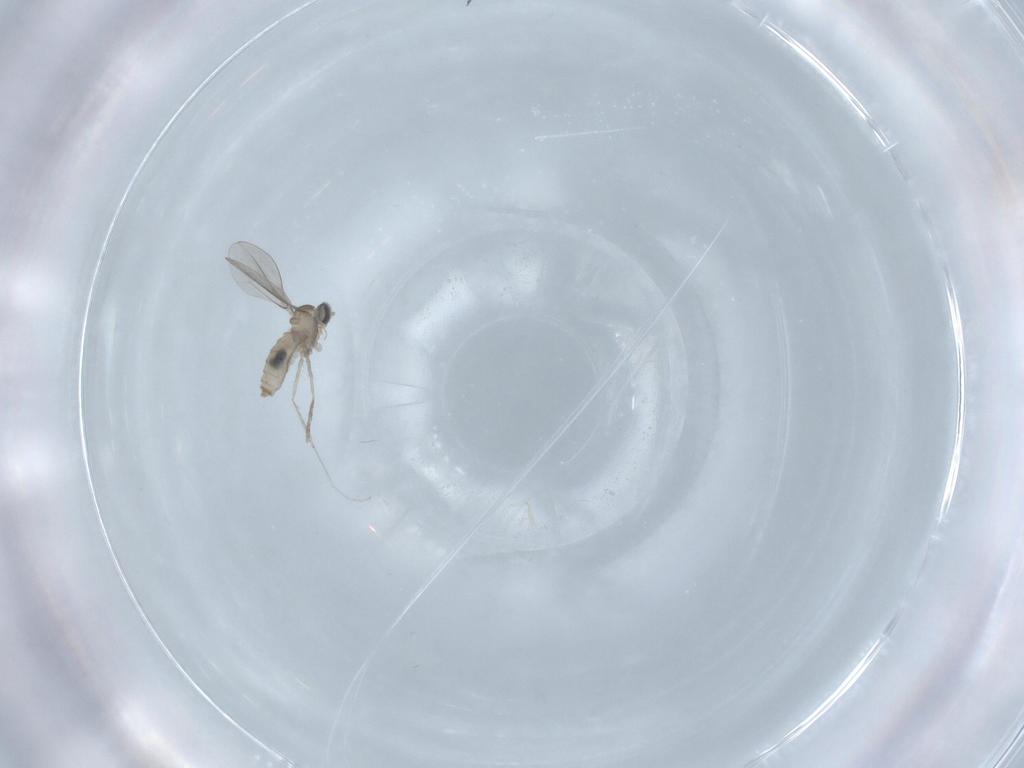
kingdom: Animalia
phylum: Arthropoda
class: Insecta
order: Diptera
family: Cecidomyiidae
